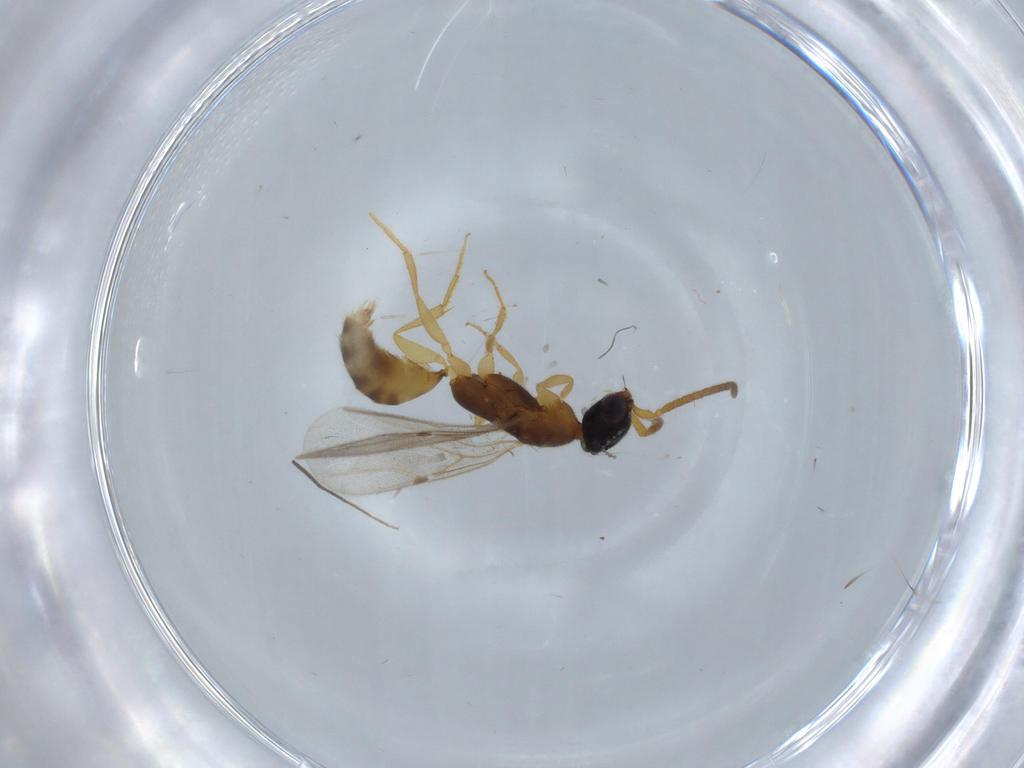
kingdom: Animalia
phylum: Arthropoda
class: Insecta
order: Hymenoptera
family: Bethylidae
